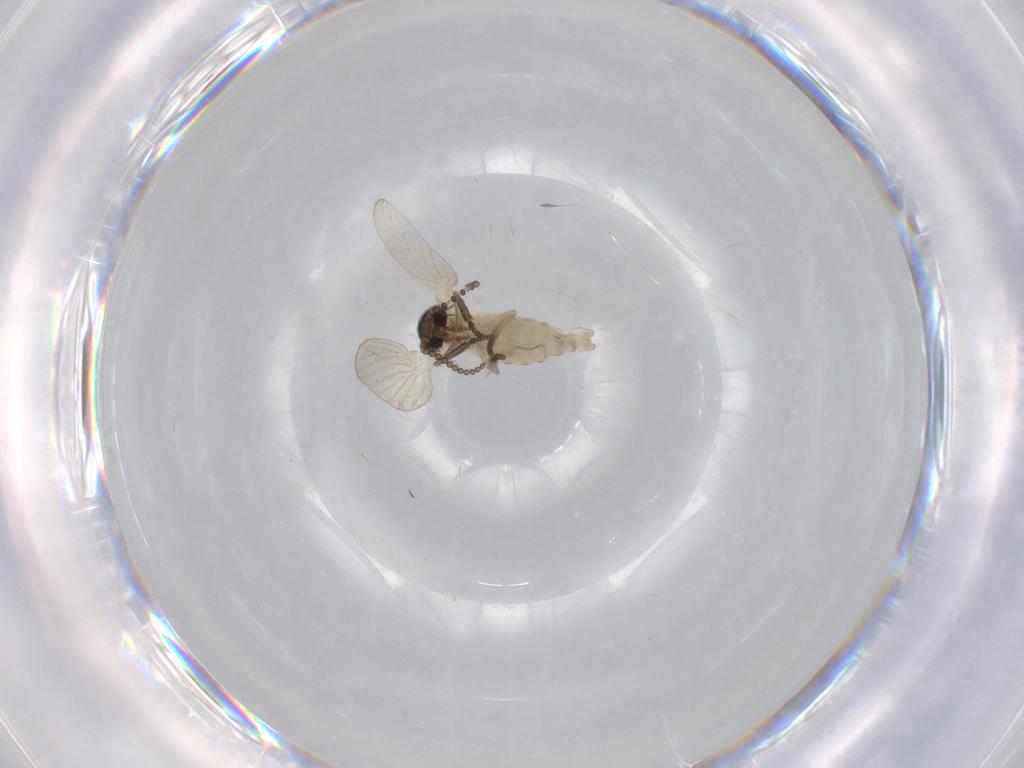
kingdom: Animalia
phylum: Arthropoda
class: Insecta
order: Diptera
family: Psychodidae
